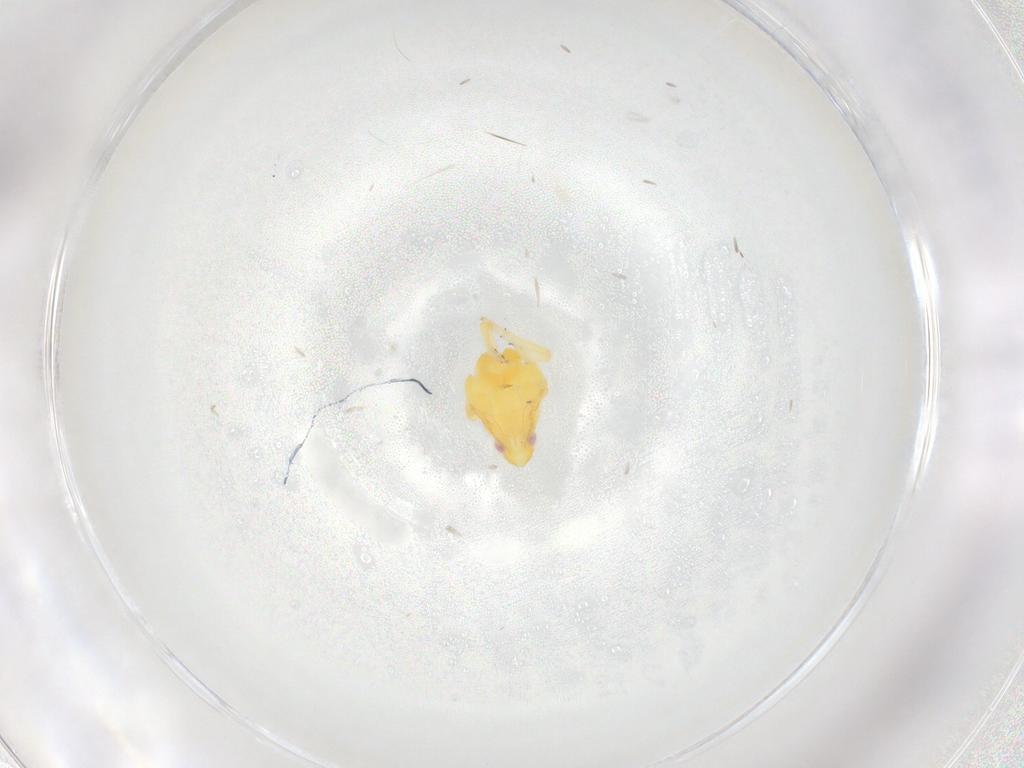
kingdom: Animalia
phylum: Arthropoda
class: Insecta
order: Hemiptera
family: Tropiduchidae
